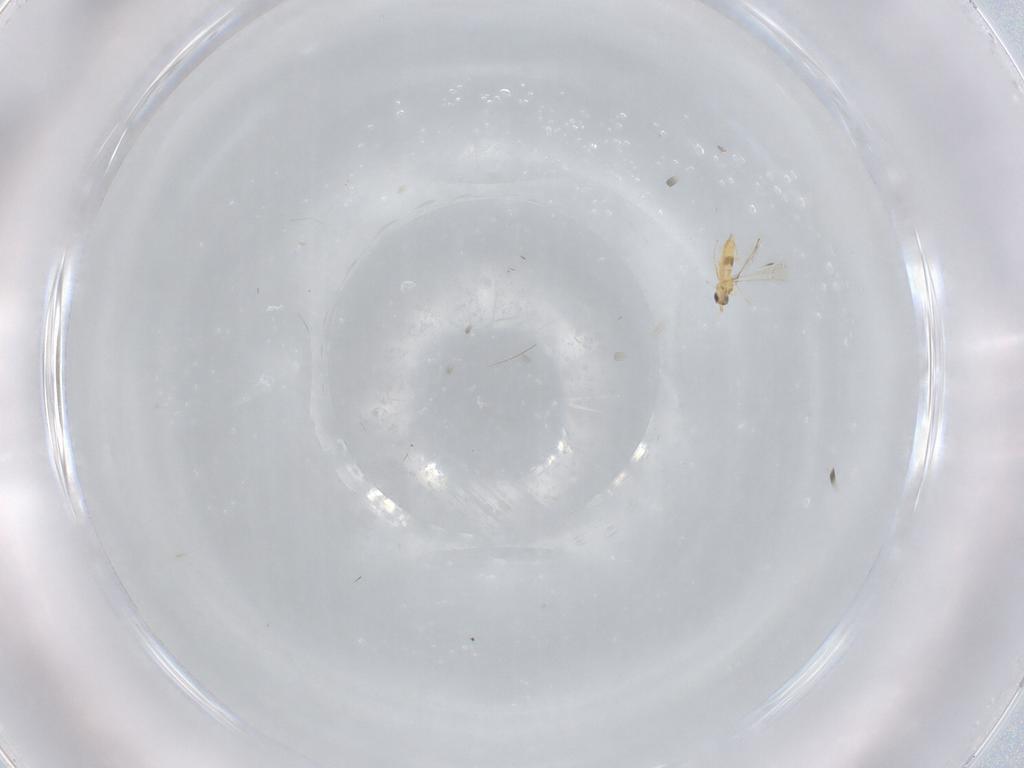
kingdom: Animalia
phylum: Arthropoda
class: Insecta
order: Hymenoptera
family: Mymaridae
